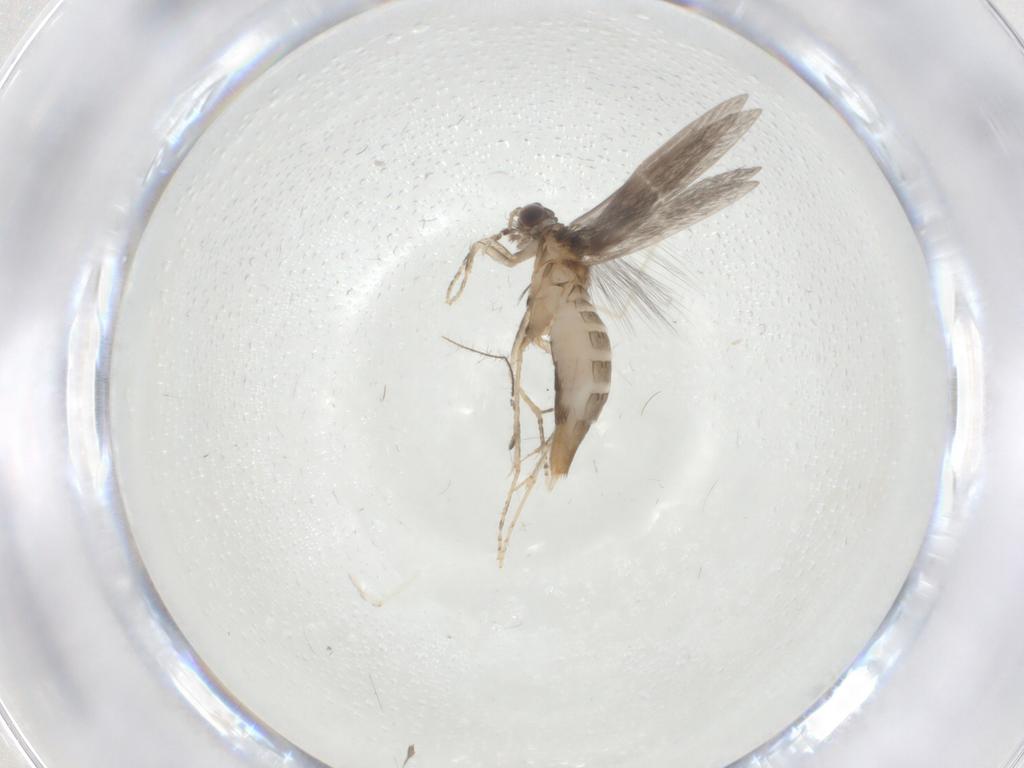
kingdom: Animalia
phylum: Arthropoda
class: Insecta
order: Trichoptera
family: Hydroptilidae
